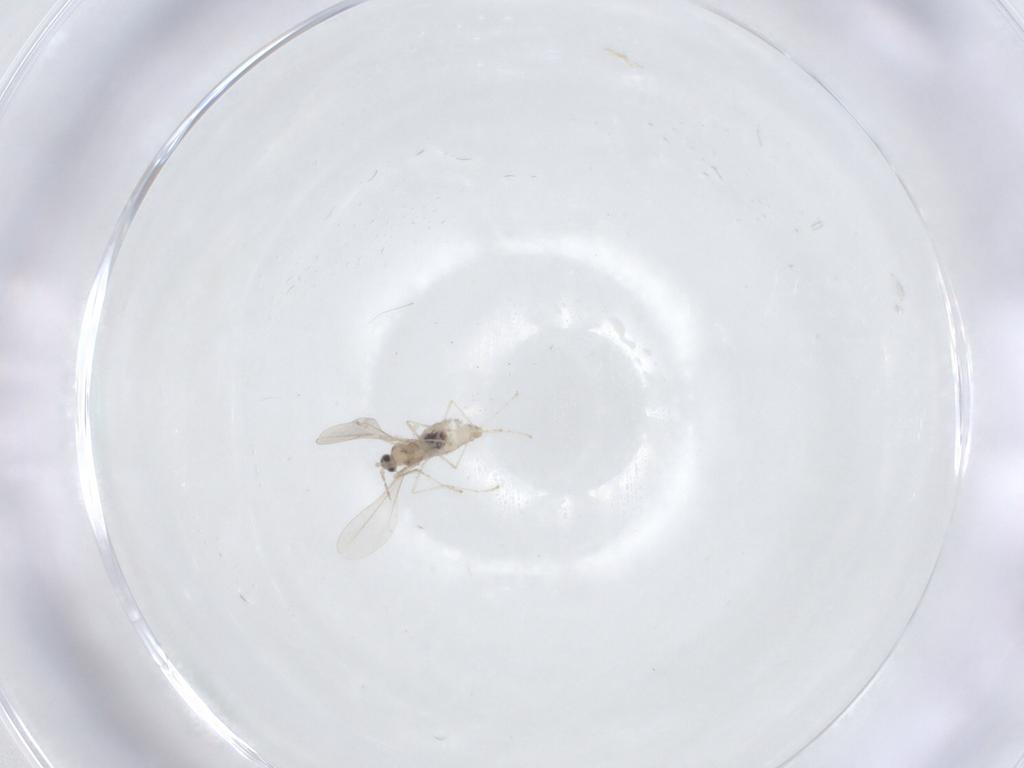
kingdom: Animalia
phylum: Arthropoda
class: Insecta
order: Diptera
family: Cecidomyiidae
